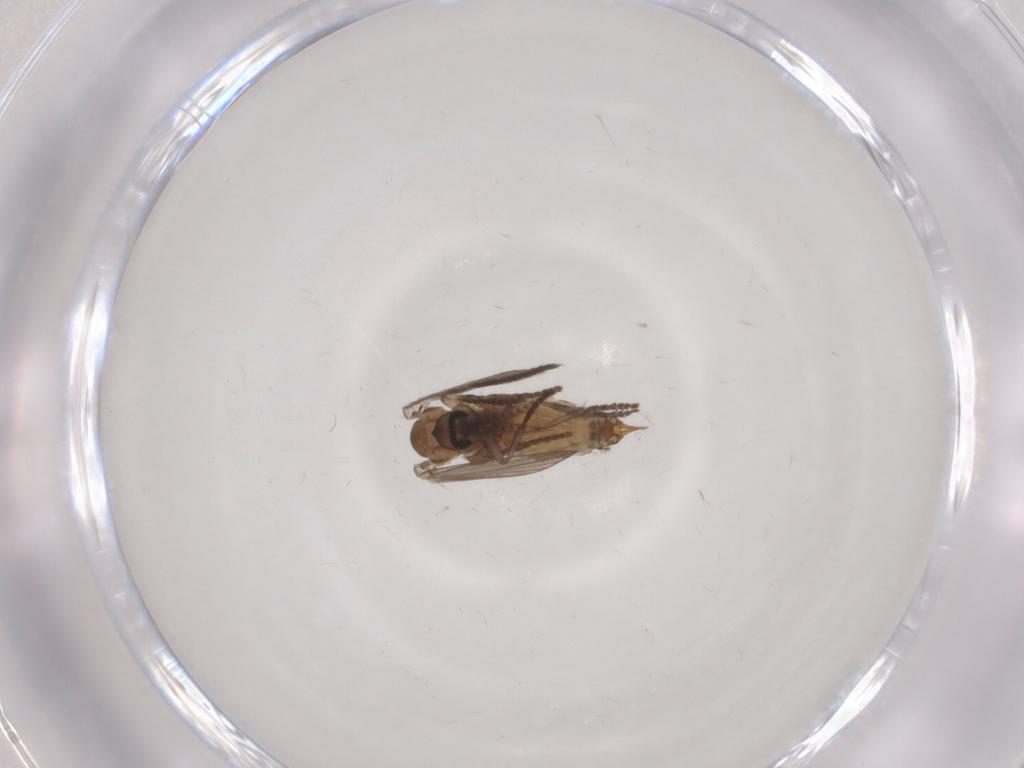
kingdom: Animalia
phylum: Arthropoda
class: Insecta
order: Diptera
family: Psychodidae
